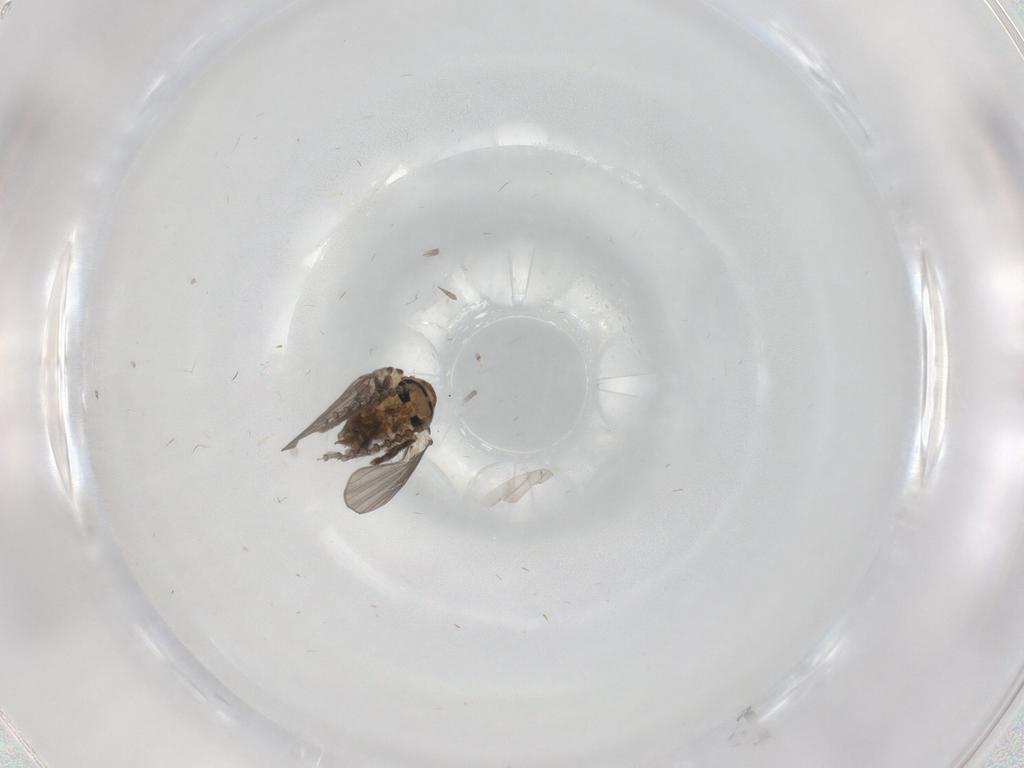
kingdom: Animalia
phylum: Arthropoda
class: Insecta
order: Diptera
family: Psychodidae
